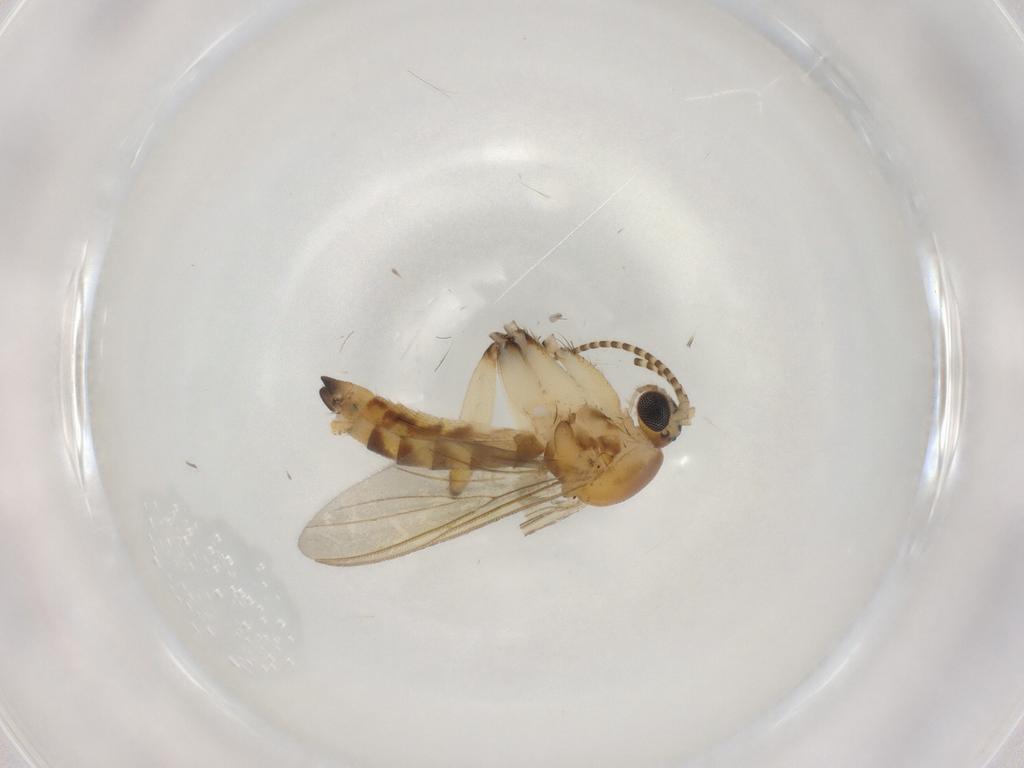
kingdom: Animalia
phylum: Arthropoda
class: Insecta
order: Diptera
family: Mycetophilidae
